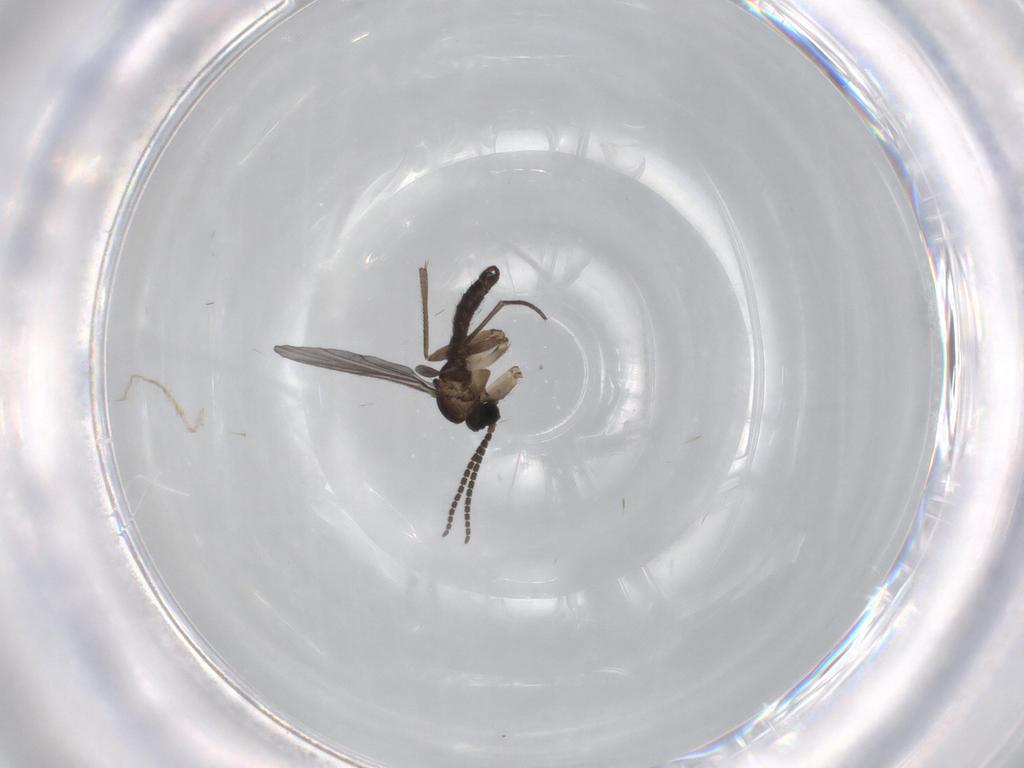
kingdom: Animalia
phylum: Arthropoda
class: Insecta
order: Diptera
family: Sciaridae
